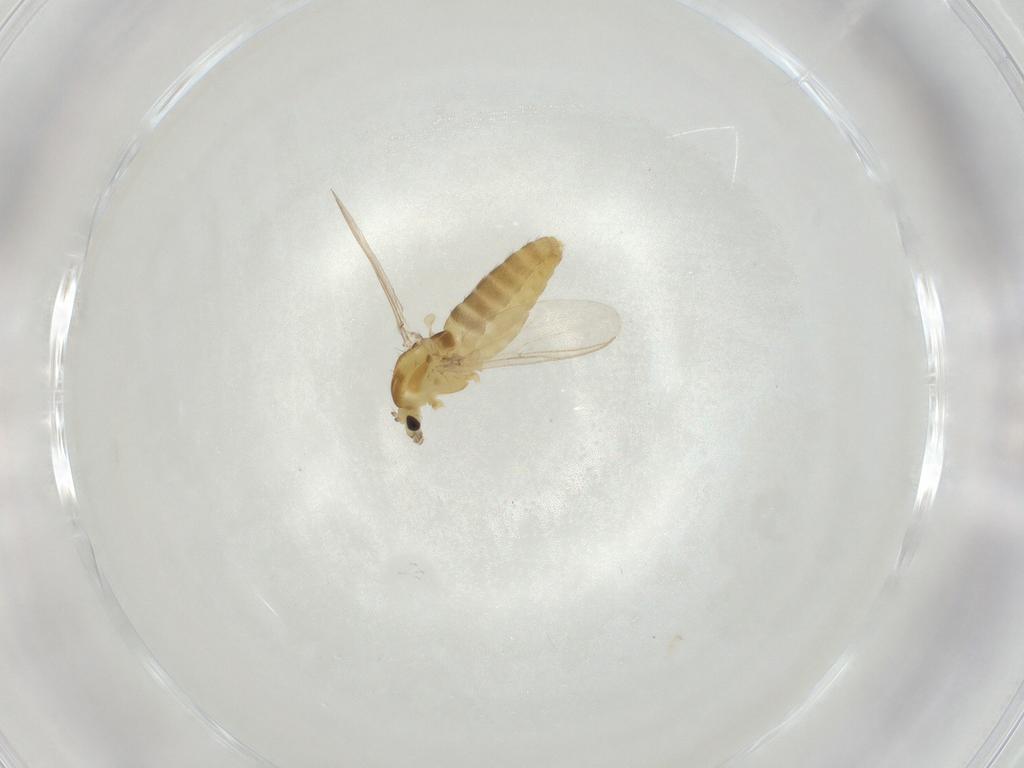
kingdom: Animalia
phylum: Arthropoda
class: Insecta
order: Diptera
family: Chironomidae
